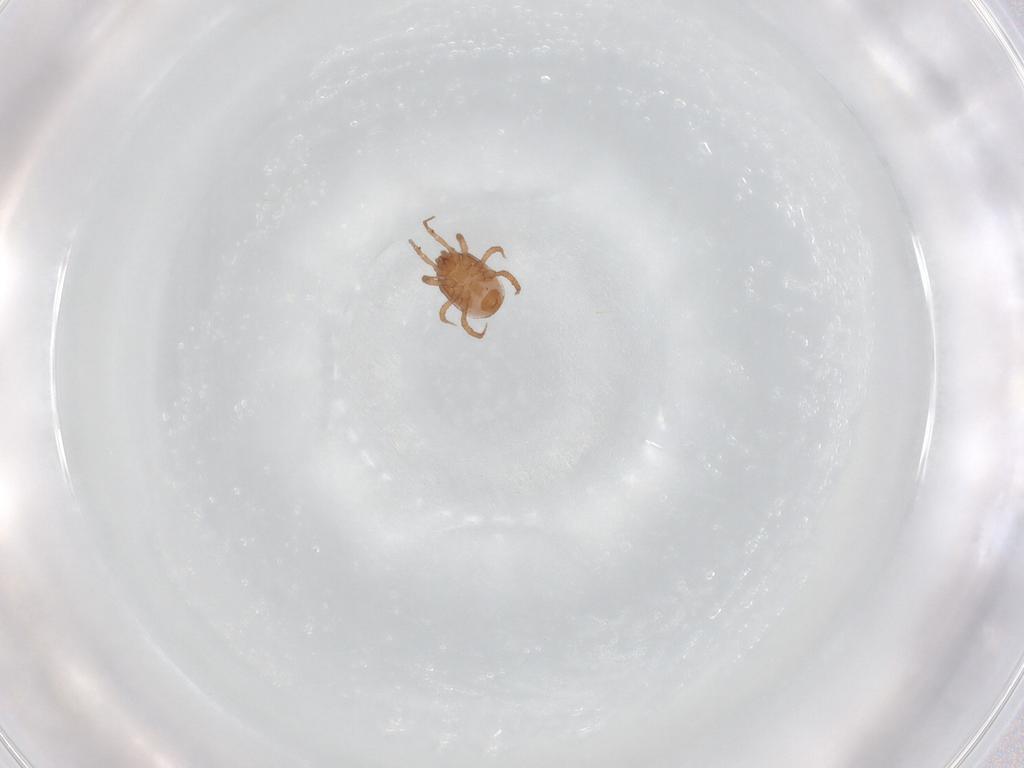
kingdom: Animalia
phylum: Arthropoda
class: Arachnida
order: Mesostigmata
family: Blattisociidae
